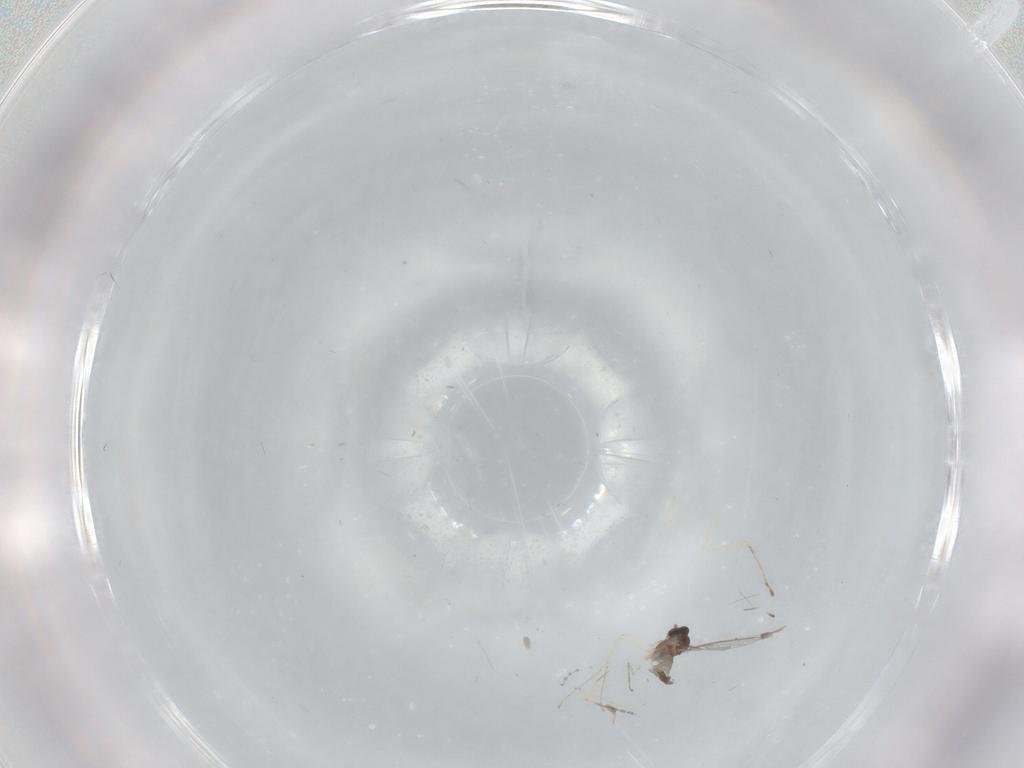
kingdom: Animalia
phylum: Arthropoda
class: Insecta
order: Diptera
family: Cecidomyiidae
